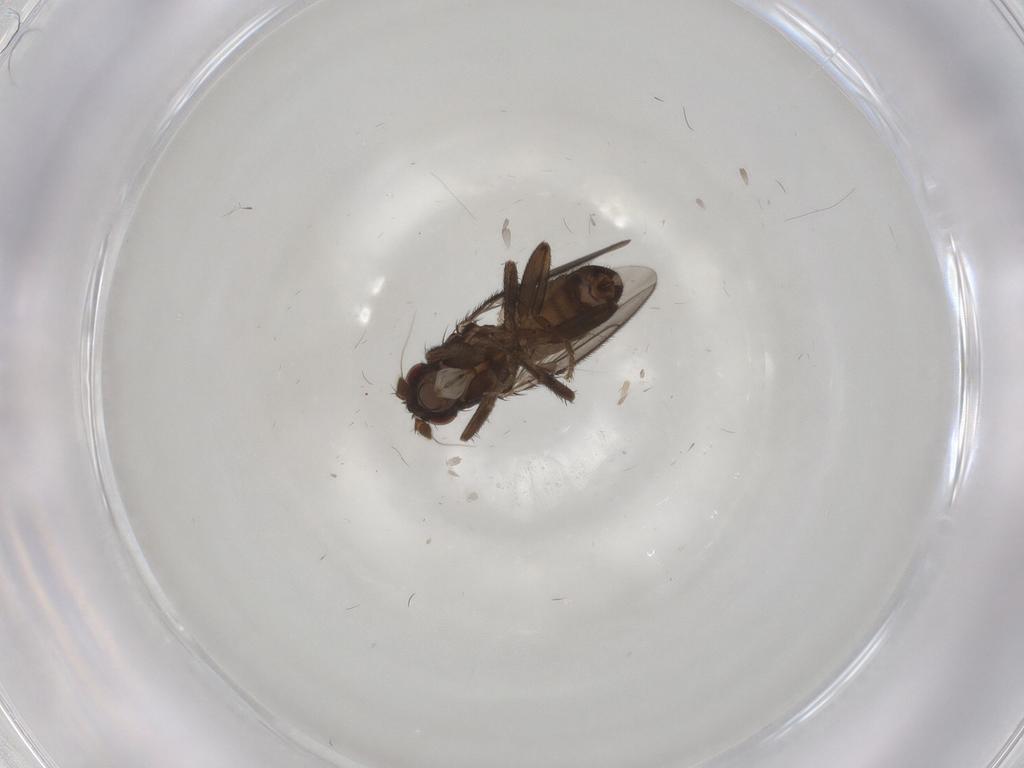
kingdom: Animalia
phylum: Arthropoda
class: Insecta
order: Diptera
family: Sphaeroceridae
